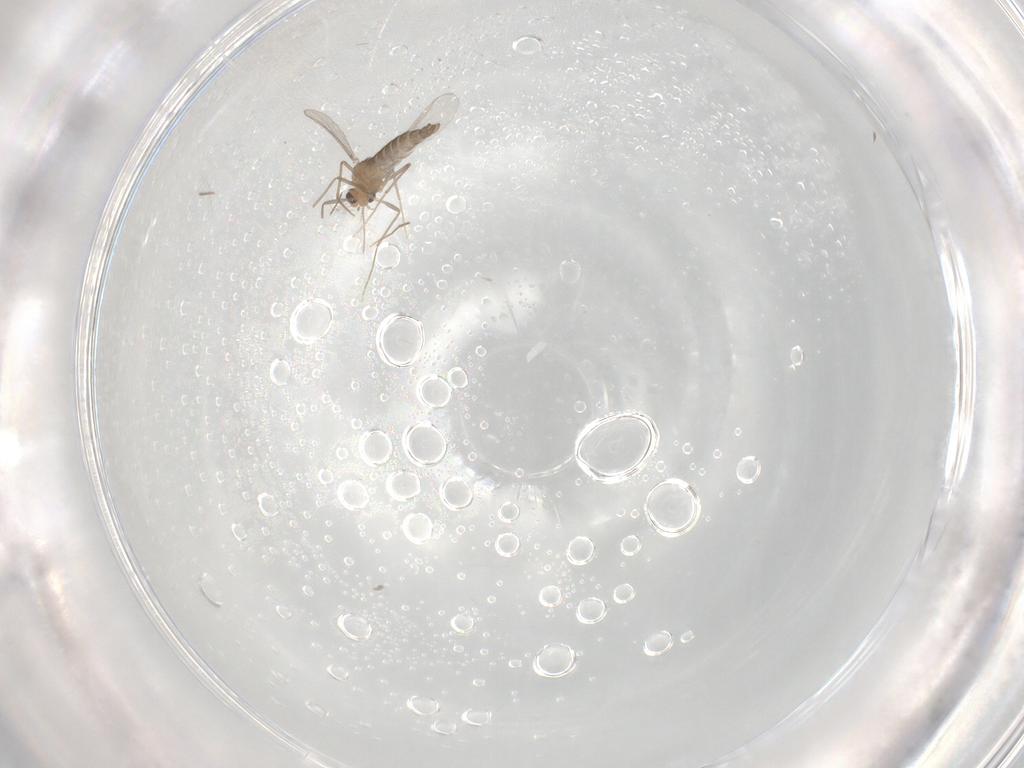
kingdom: Animalia
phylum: Arthropoda
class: Insecta
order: Diptera
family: Chironomidae
